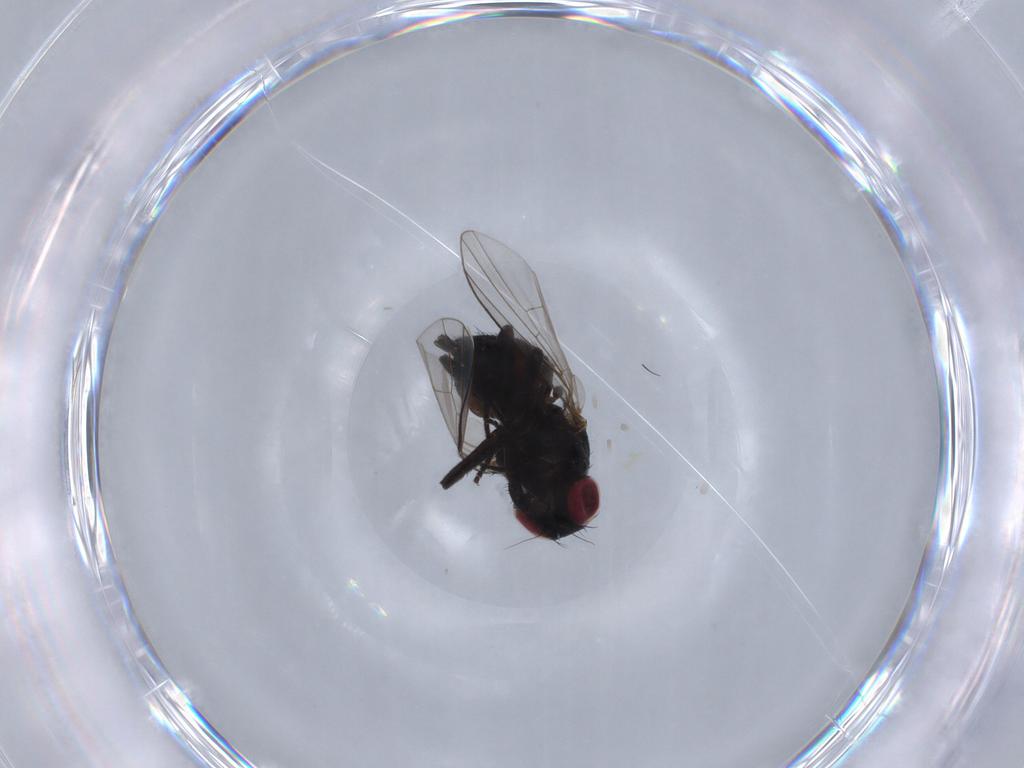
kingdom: Animalia
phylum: Arthropoda
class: Insecta
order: Diptera
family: Agromyzidae
